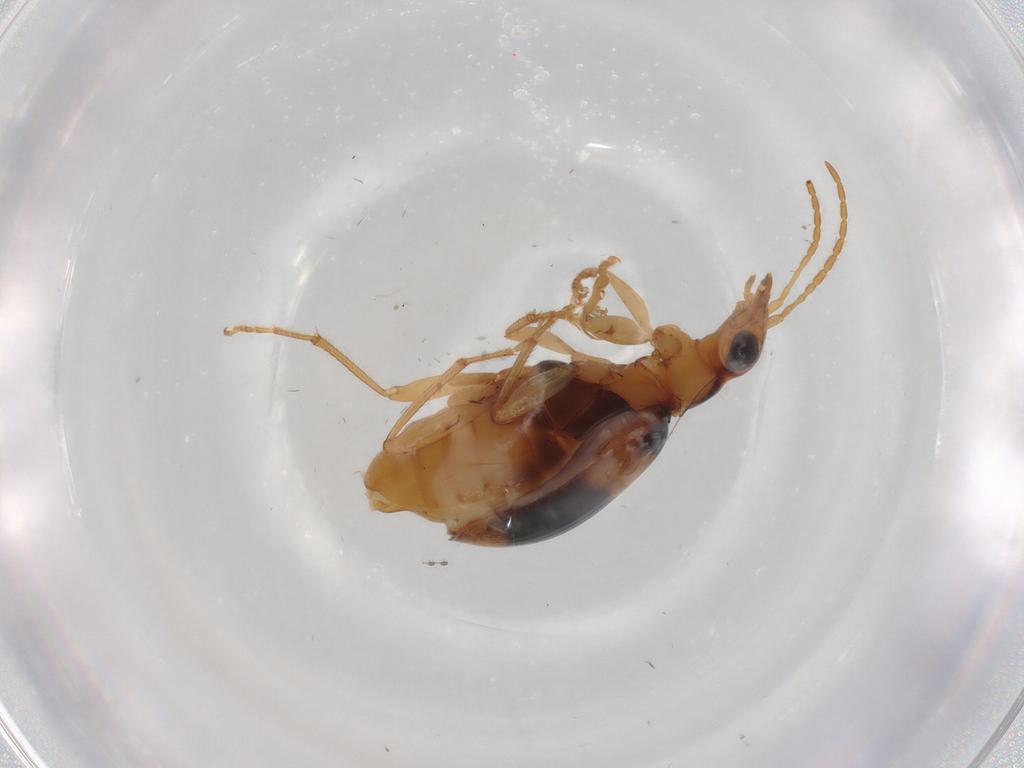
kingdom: Animalia
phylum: Arthropoda
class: Insecta
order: Coleoptera
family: Carabidae
